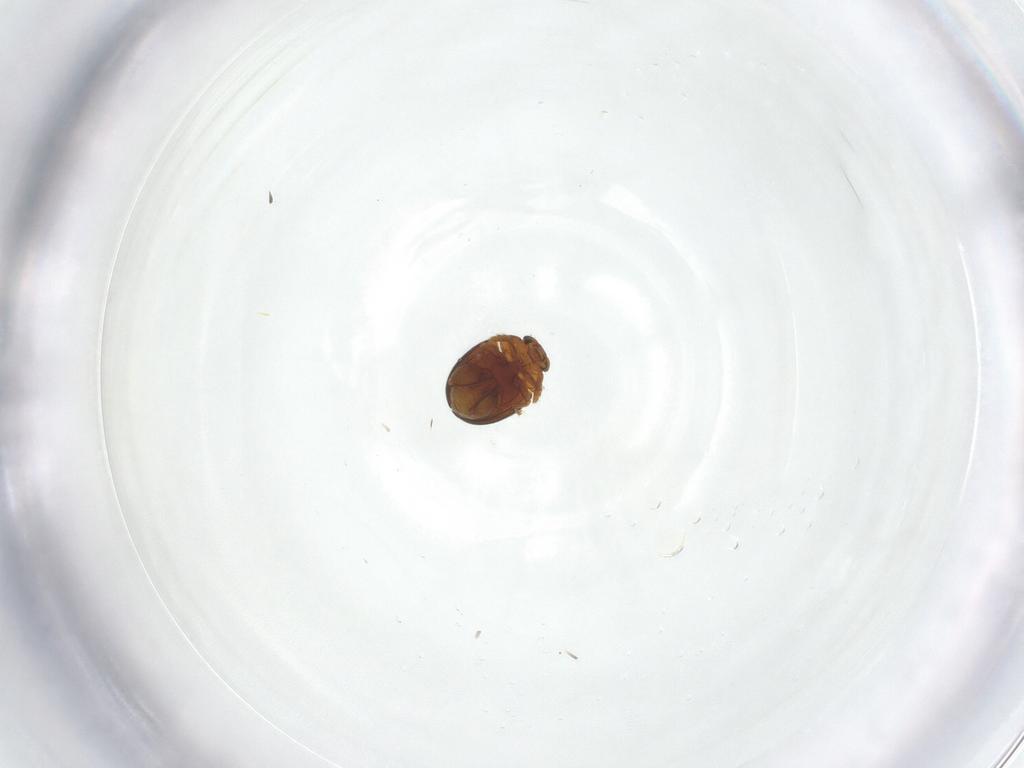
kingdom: Animalia
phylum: Arthropoda
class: Insecta
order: Coleoptera
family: Chrysomelidae
